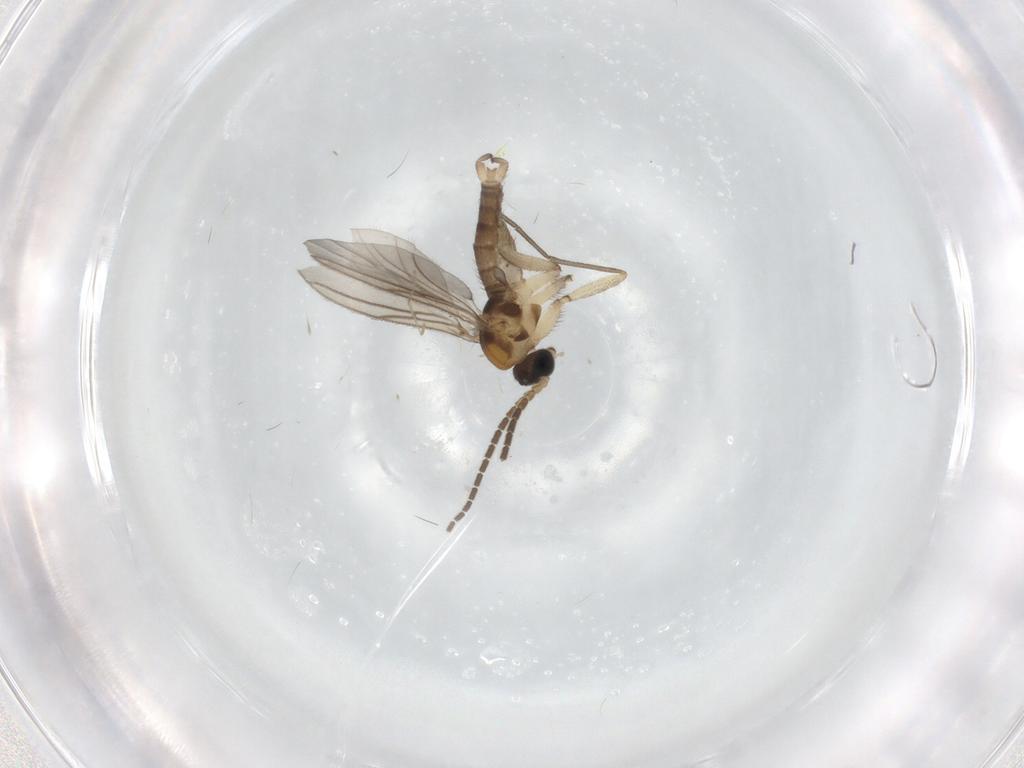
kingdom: Animalia
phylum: Arthropoda
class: Insecta
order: Diptera
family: Sciaridae
